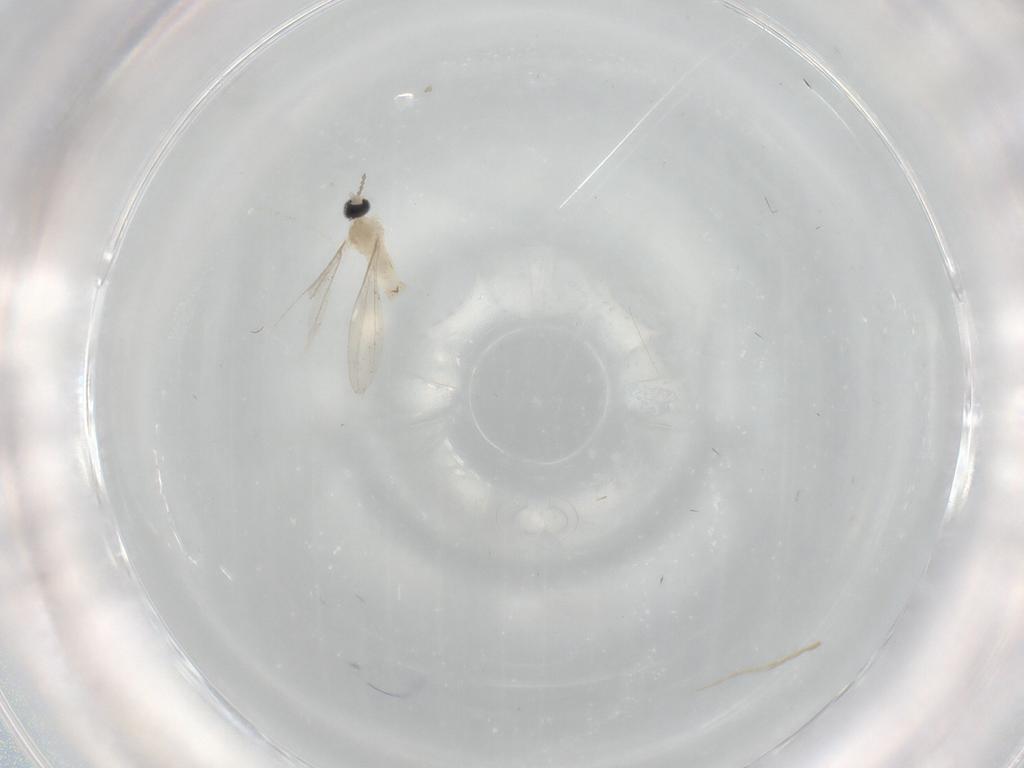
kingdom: Animalia
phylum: Arthropoda
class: Insecta
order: Diptera
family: Cecidomyiidae
